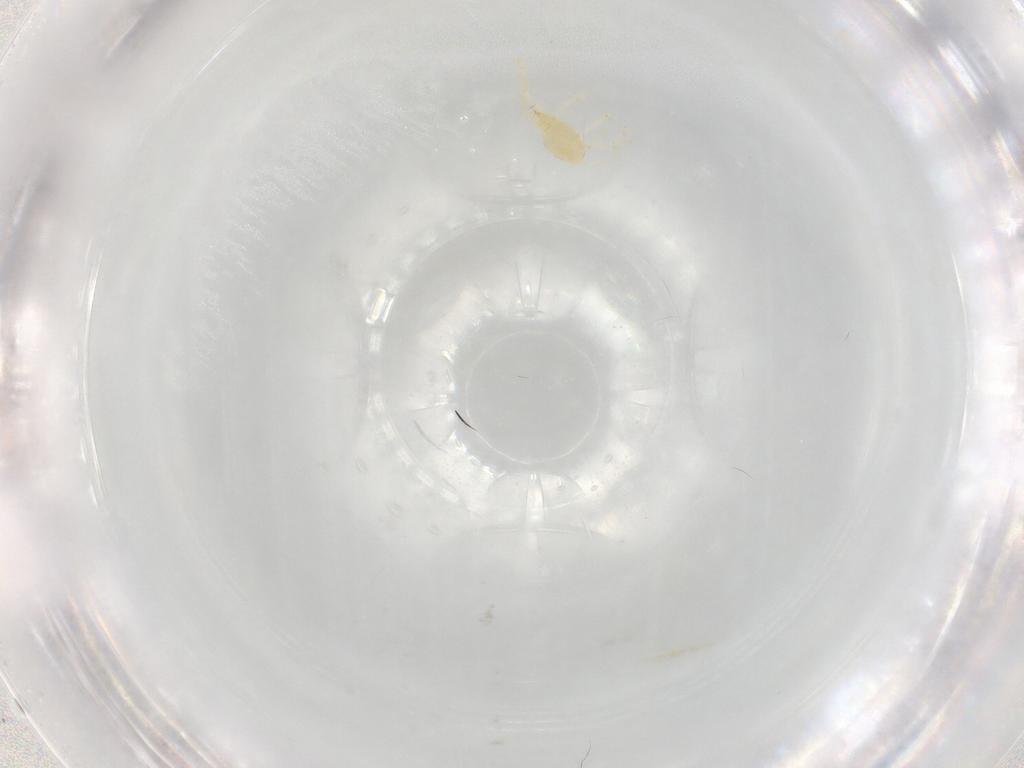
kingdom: Animalia
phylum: Arthropoda
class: Arachnida
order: Trombidiformes
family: Erythraeidae
